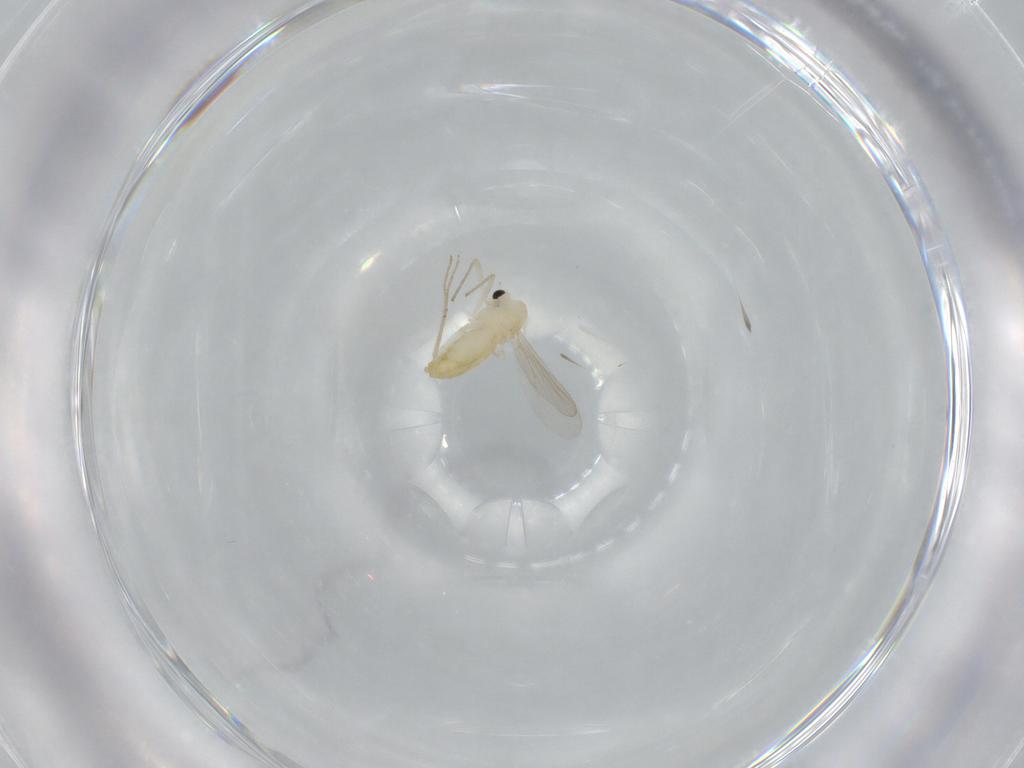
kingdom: Animalia
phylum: Arthropoda
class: Insecta
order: Diptera
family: Chironomidae
